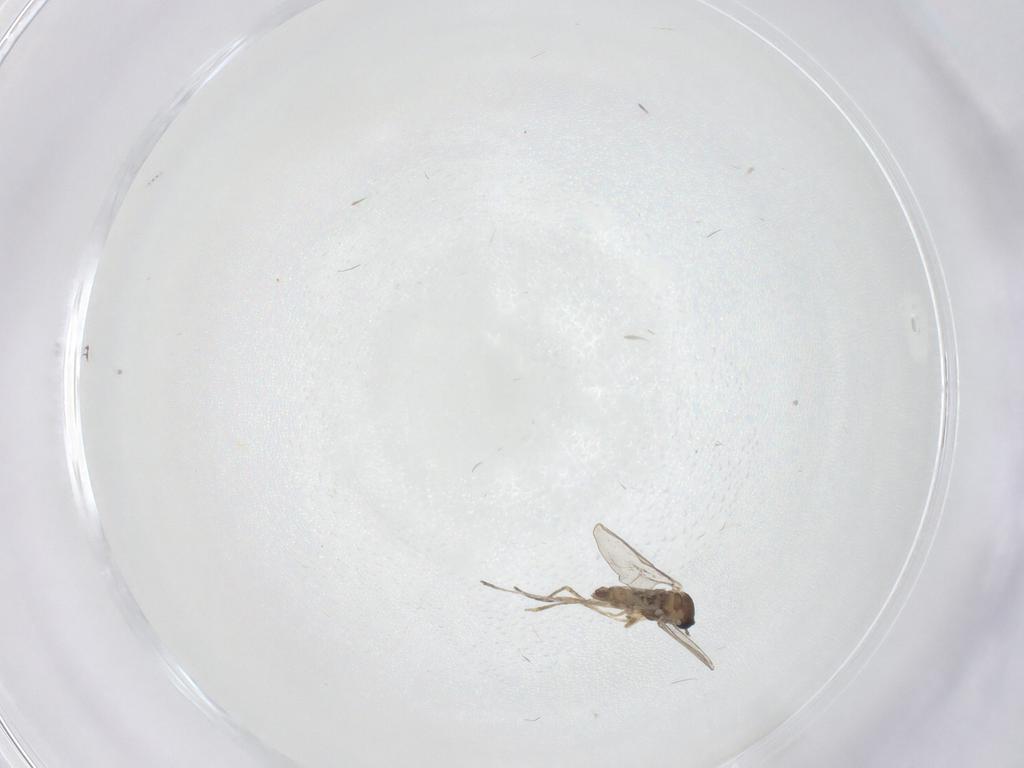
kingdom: Animalia
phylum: Arthropoda
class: Insecta
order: Diptera
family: Cecidomyiidae
